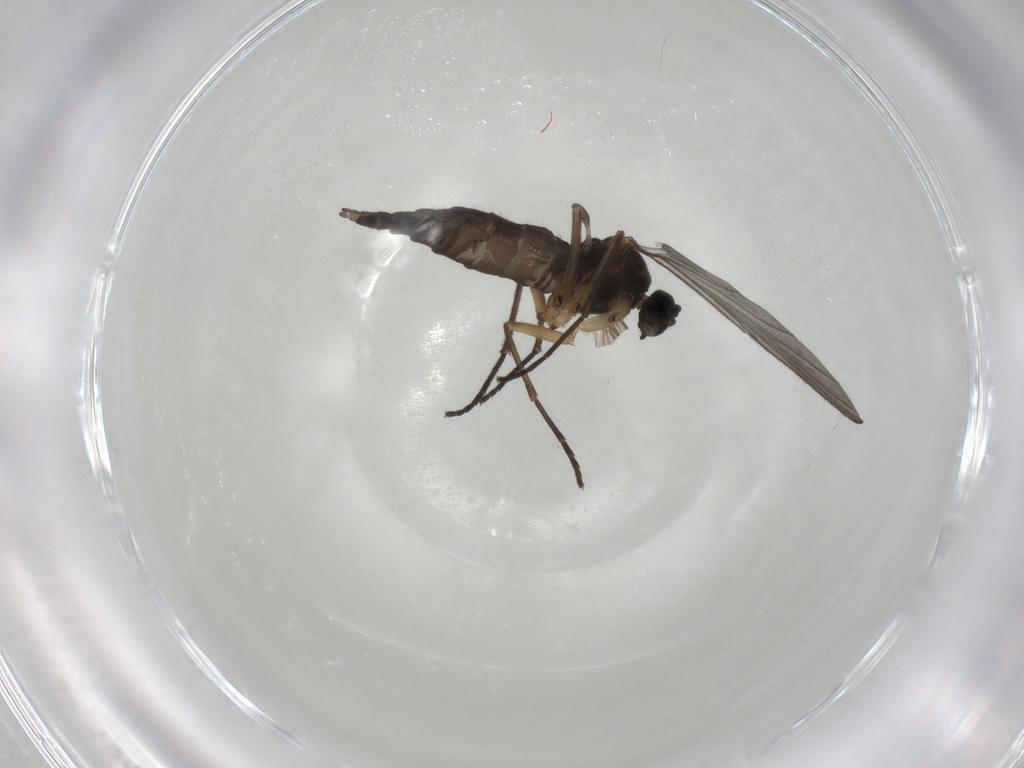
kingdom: Animalia
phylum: Arthropoda
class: Insecta
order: Diptera
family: Sciaridae
